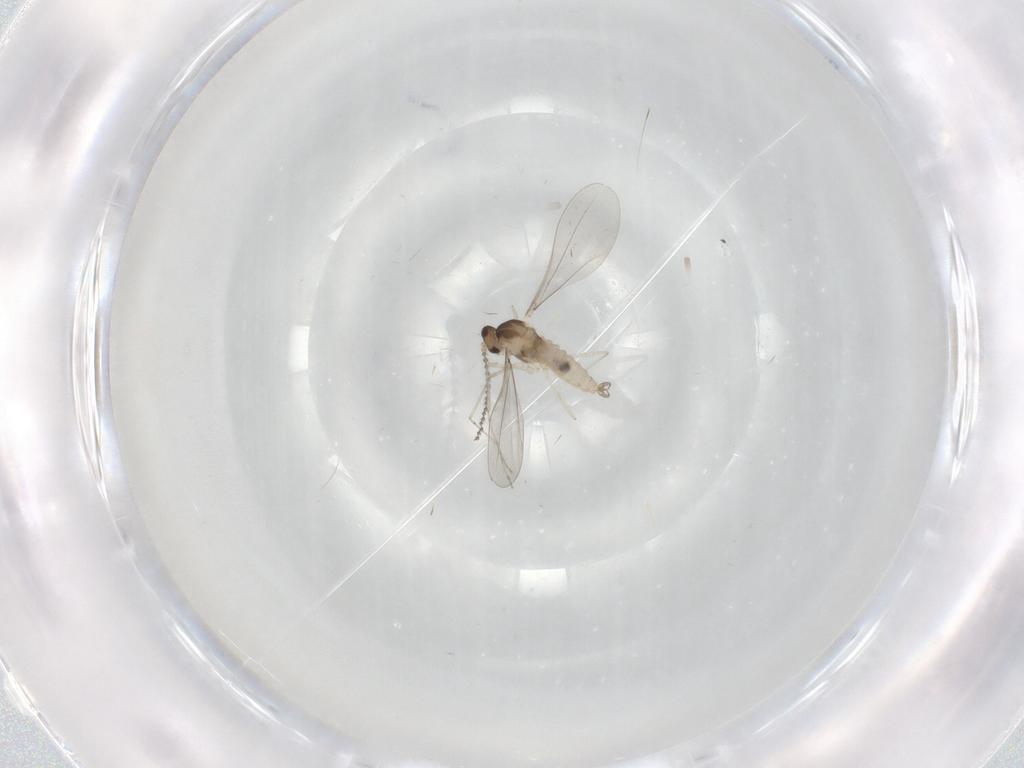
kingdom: Animalia
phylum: Arthropoda
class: Insecta
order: Diptera
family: Cecidomyiidae
